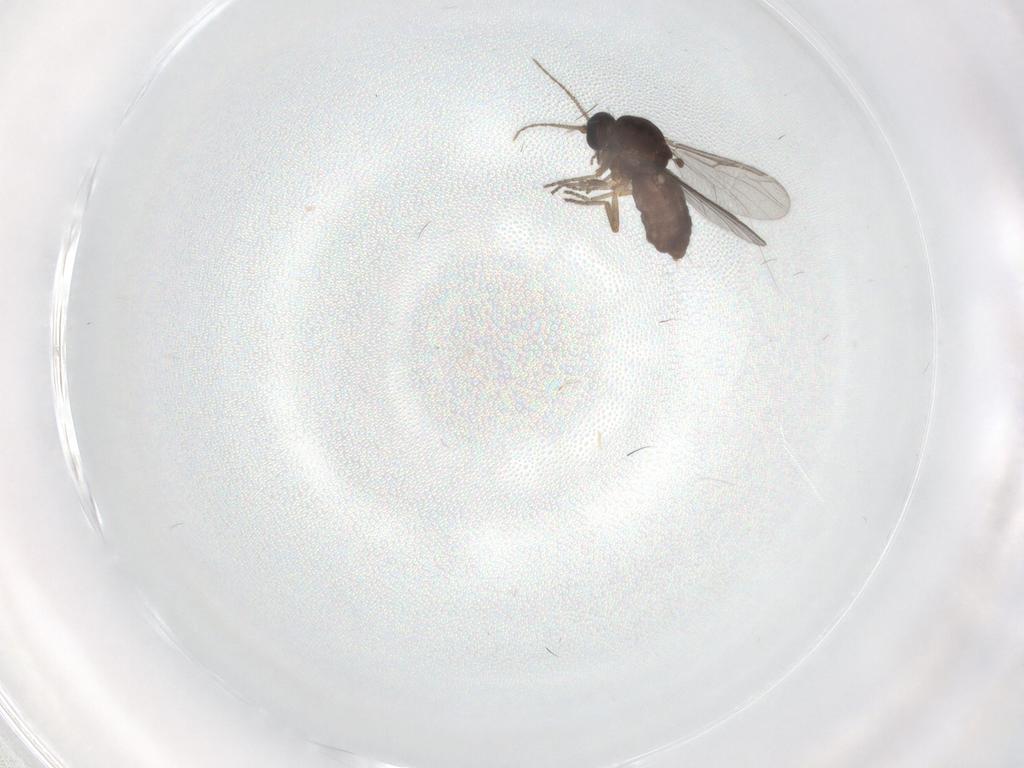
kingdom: Animalia
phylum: Arthropoda
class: Insecta
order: Diptera
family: Ceratopogonidae
